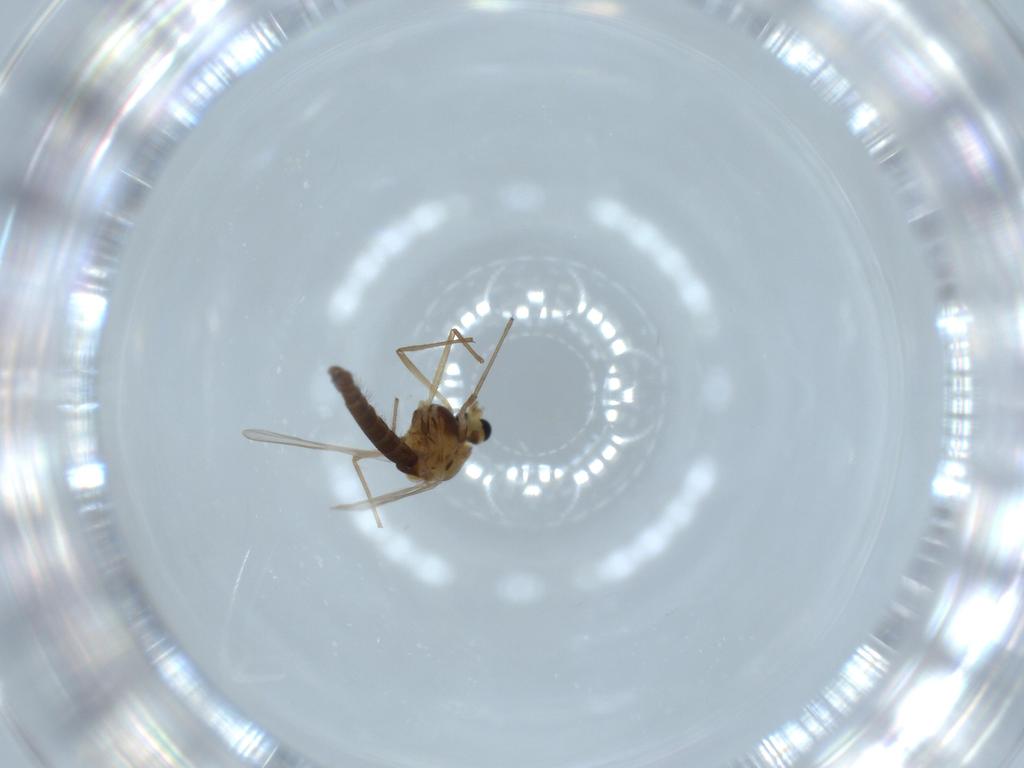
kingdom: Animalia
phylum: Arthropoda
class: Insecta
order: Diptera
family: Chironomidae
